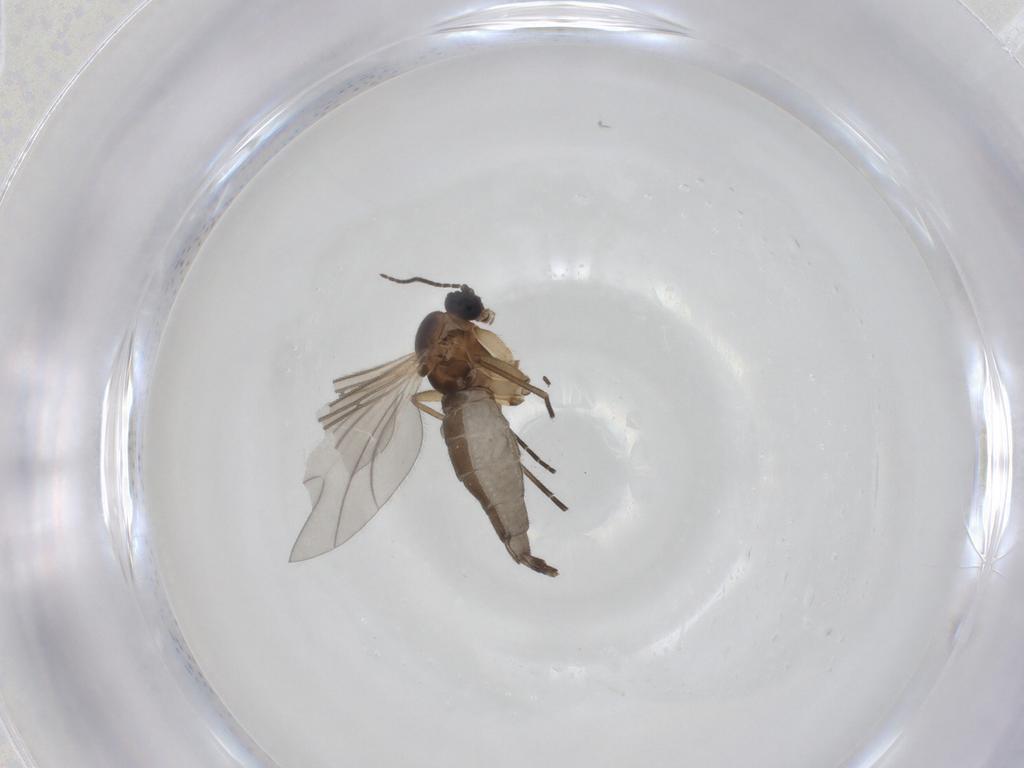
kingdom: Animalia
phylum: Arthropoda
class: Insecta
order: Diptera
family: Sciaridae
